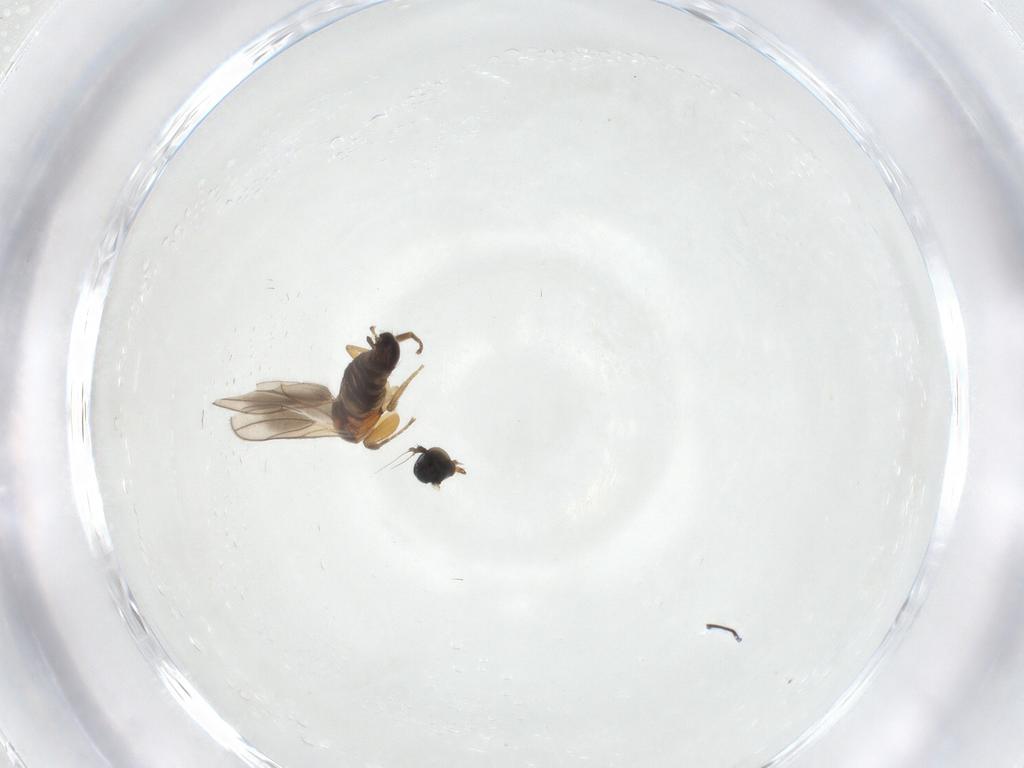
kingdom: Animalia
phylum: Arthropoda
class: Insecta
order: Diptera
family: Hybotidae
